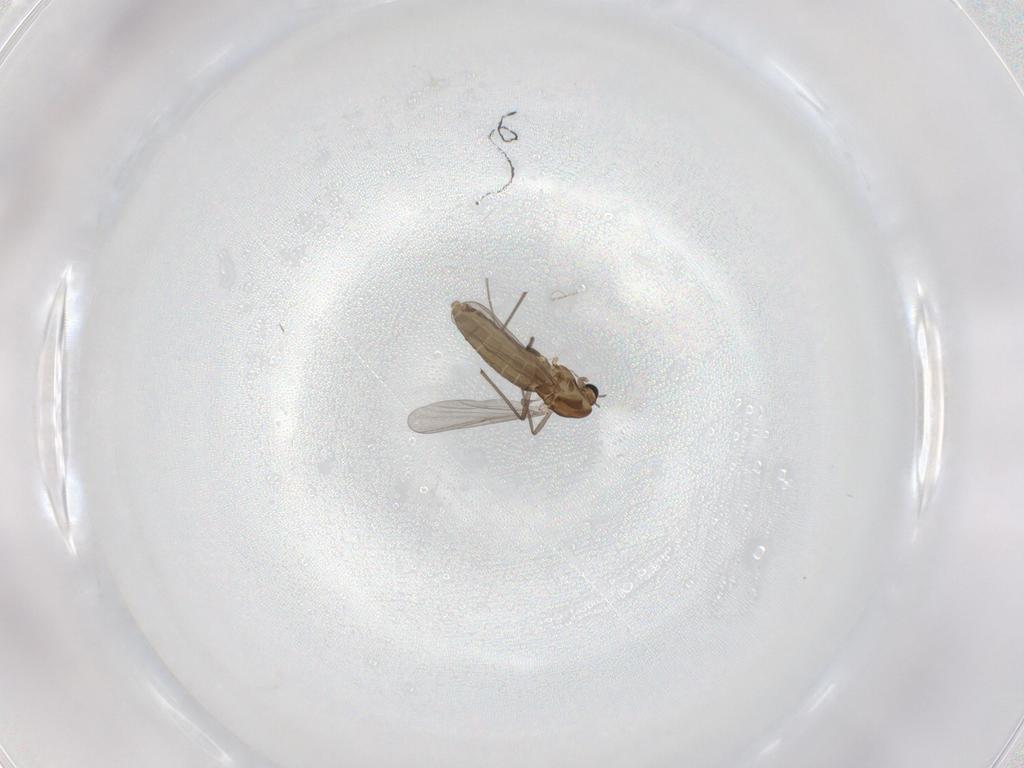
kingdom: Animalia
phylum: Arthropoda
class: Insecta
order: Diptera
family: Chironomidae
